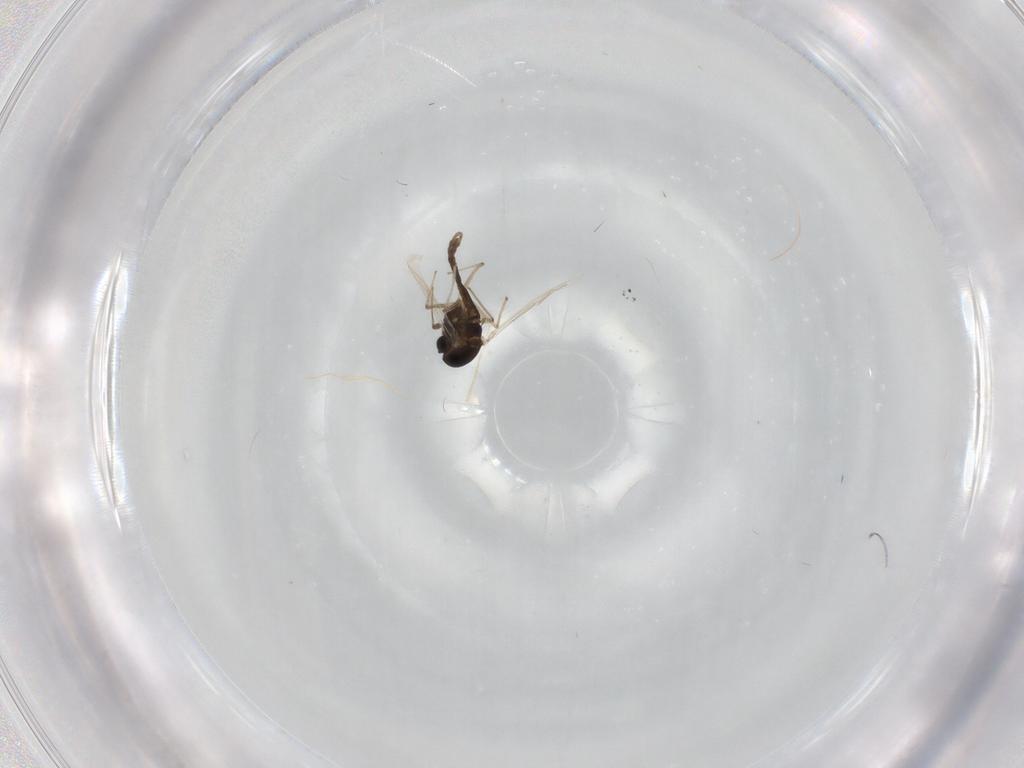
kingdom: Animalia
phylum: Arthropoda
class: Insecta
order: Diptera
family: Chironomidae
